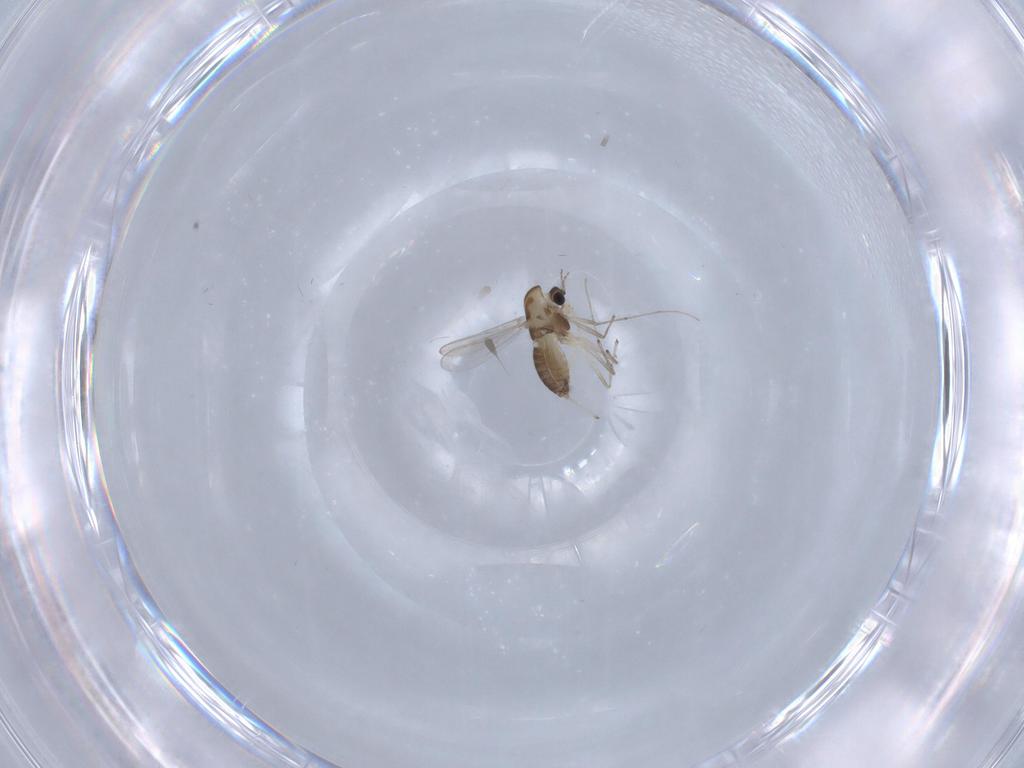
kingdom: Animalia
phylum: Arthropoda
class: Insecta
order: Diptera
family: Chironomidae
